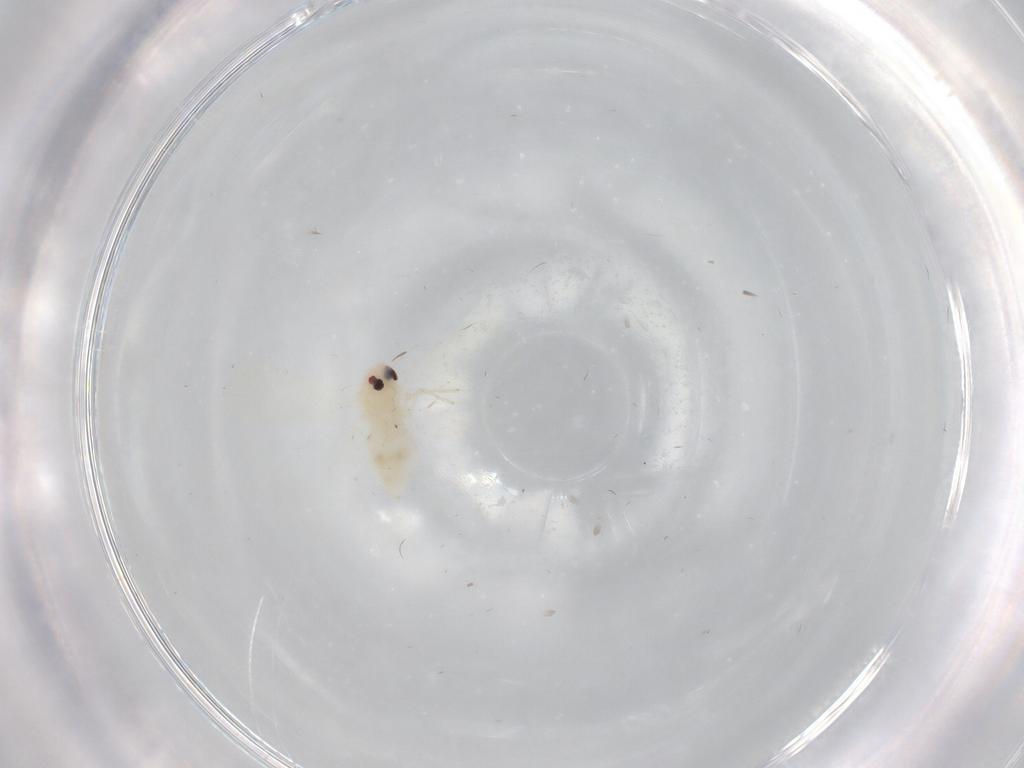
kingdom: Animalia
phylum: Arthropoda
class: Insecta
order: Hemiptera
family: Aleyrodidae
